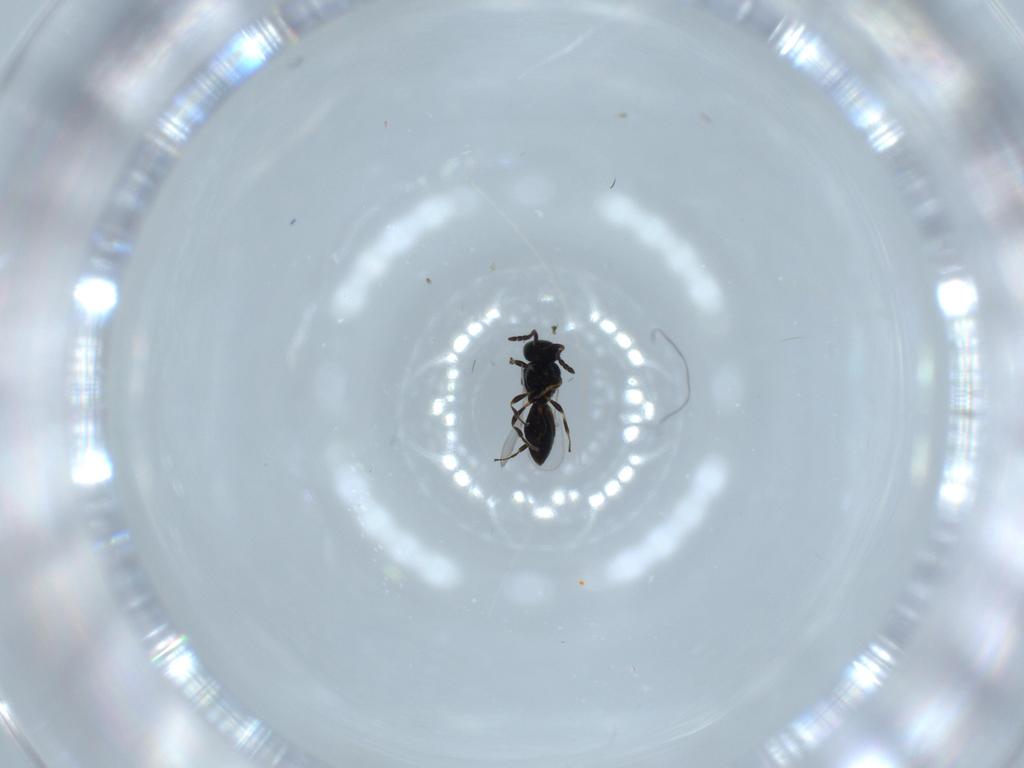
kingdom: Animalia
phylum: Arthropoda
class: Insecta
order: Hymenoptera
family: Platygastridae
